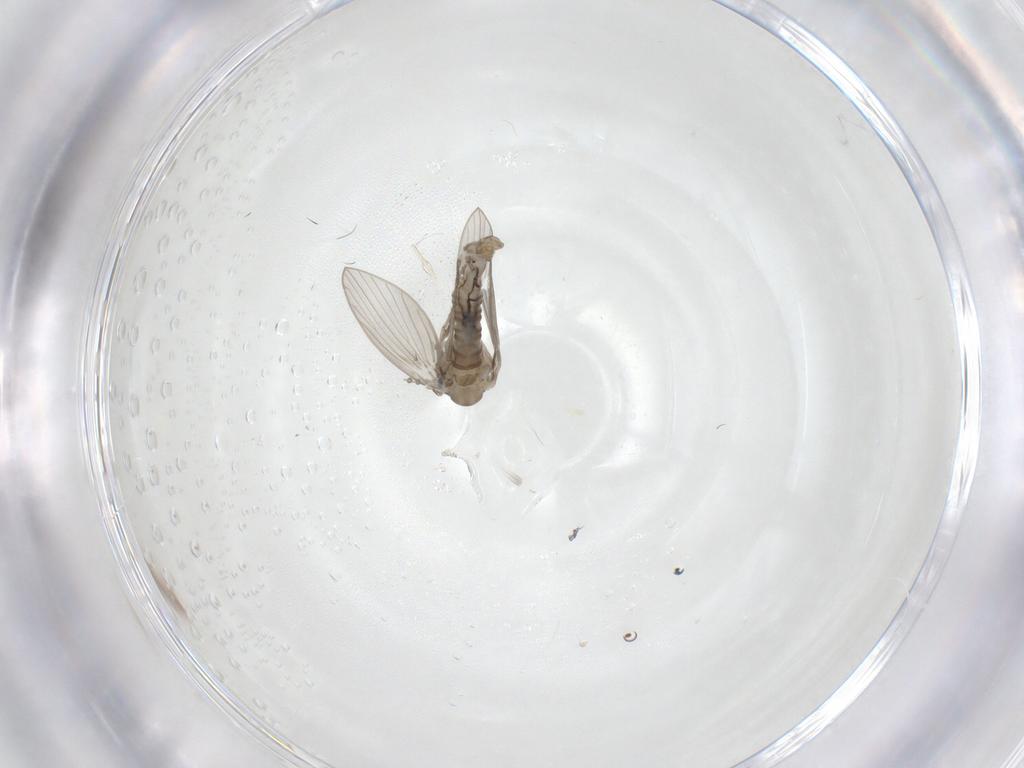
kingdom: Animalia
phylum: Arthropoda
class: Insecta
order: Diptera
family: Psychodidae
